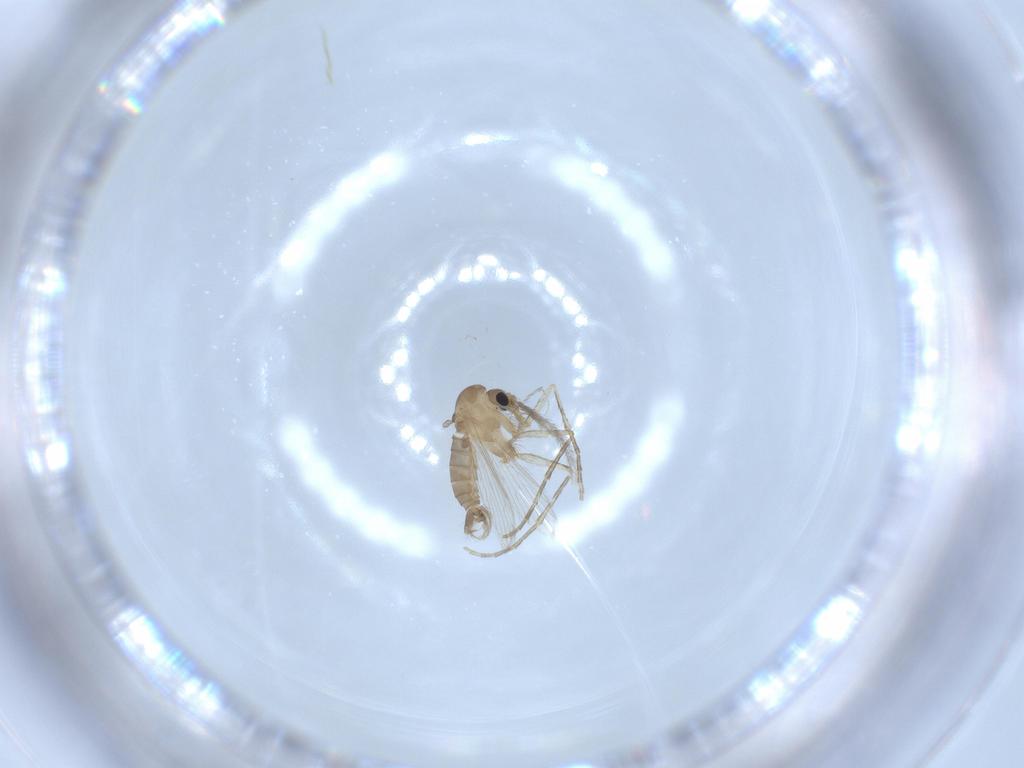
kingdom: Animalia
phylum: Arthropoda
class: Insecta
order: Diptera
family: Psychodidae
